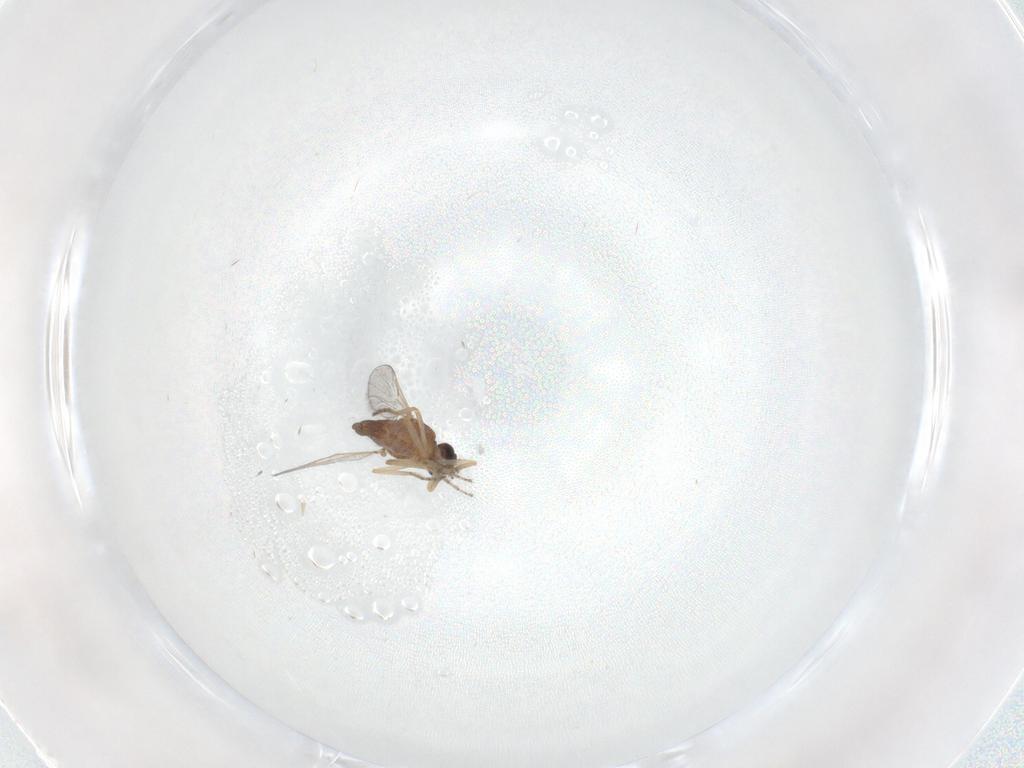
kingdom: Animalia
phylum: Arthropoda
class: Insecta
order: Diptera
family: Ceratopogonidae
